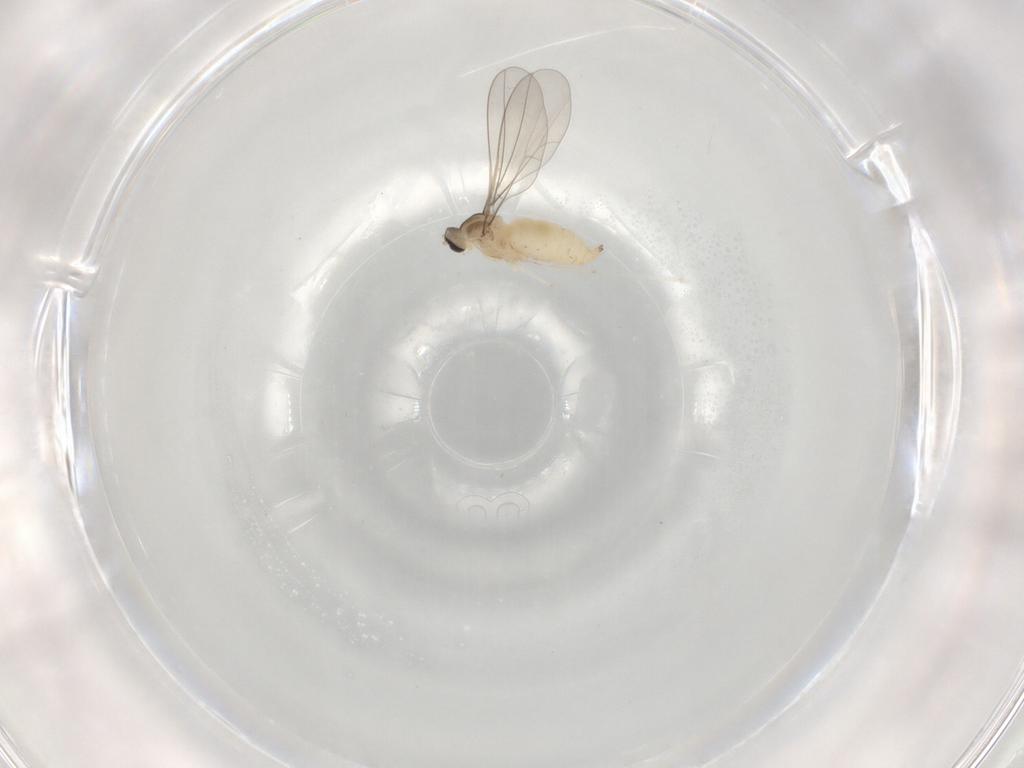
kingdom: Animalia
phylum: Arthropoda
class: Insecta
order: Diptera
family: Cecidomyiidae
